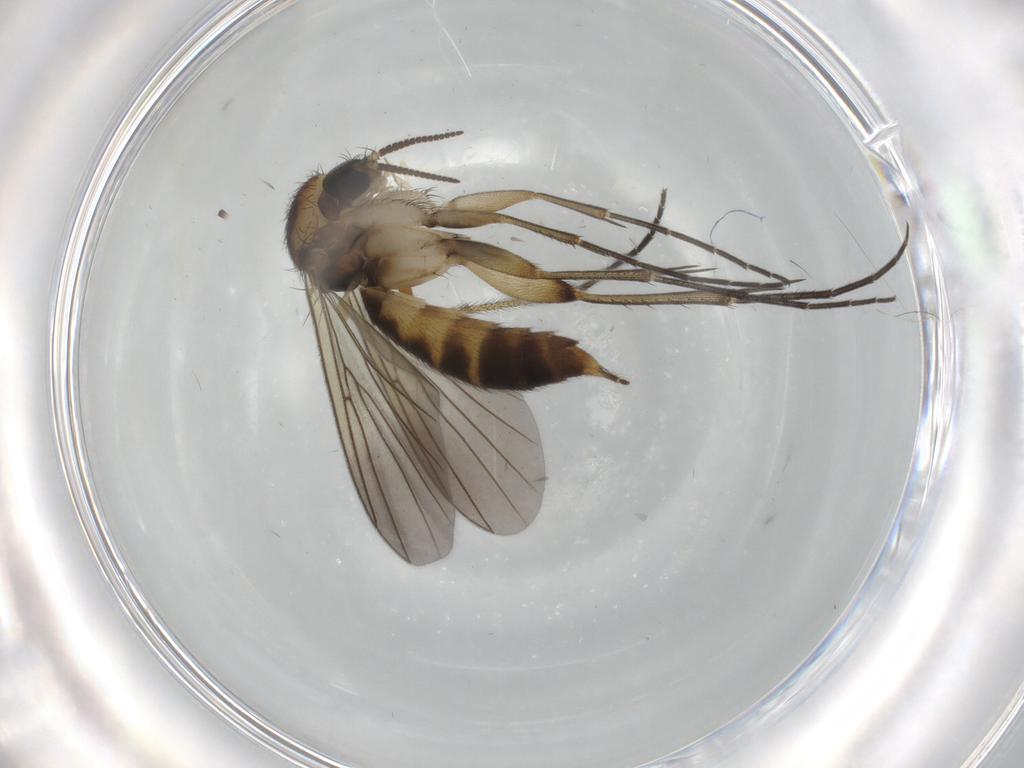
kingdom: Animalia
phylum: Arthropoda
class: Insecta
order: Diptera
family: Mycetophilidae
